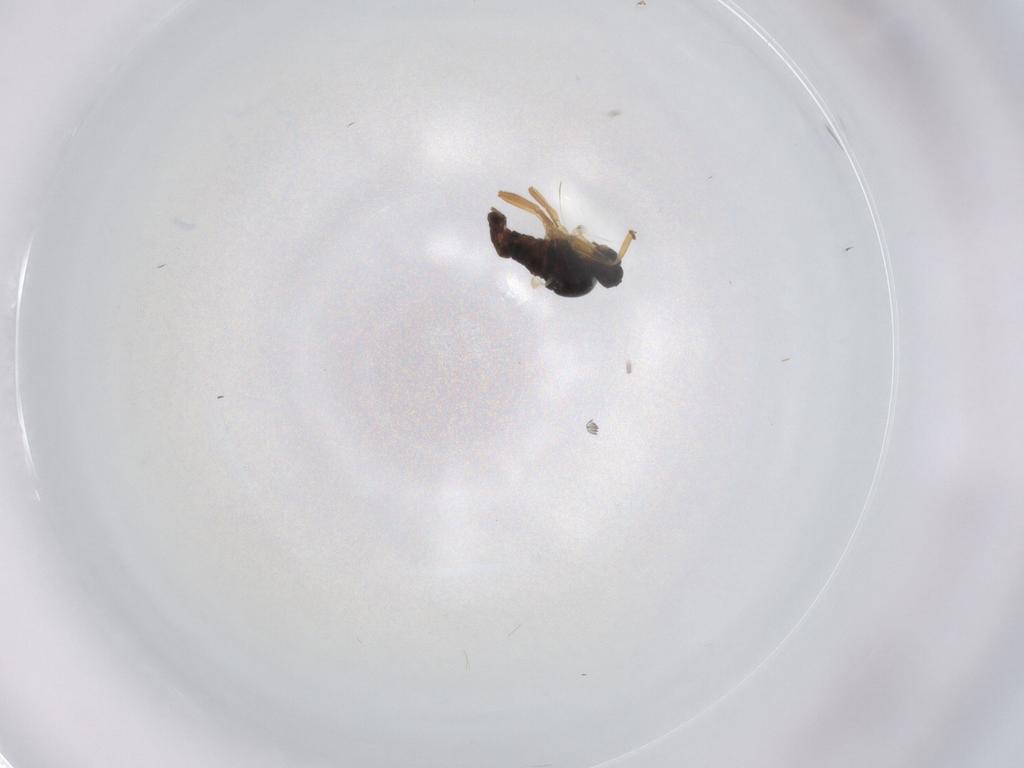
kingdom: Animalia
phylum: Arthropoda
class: Insecta
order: Diptera
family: Hybotidae
